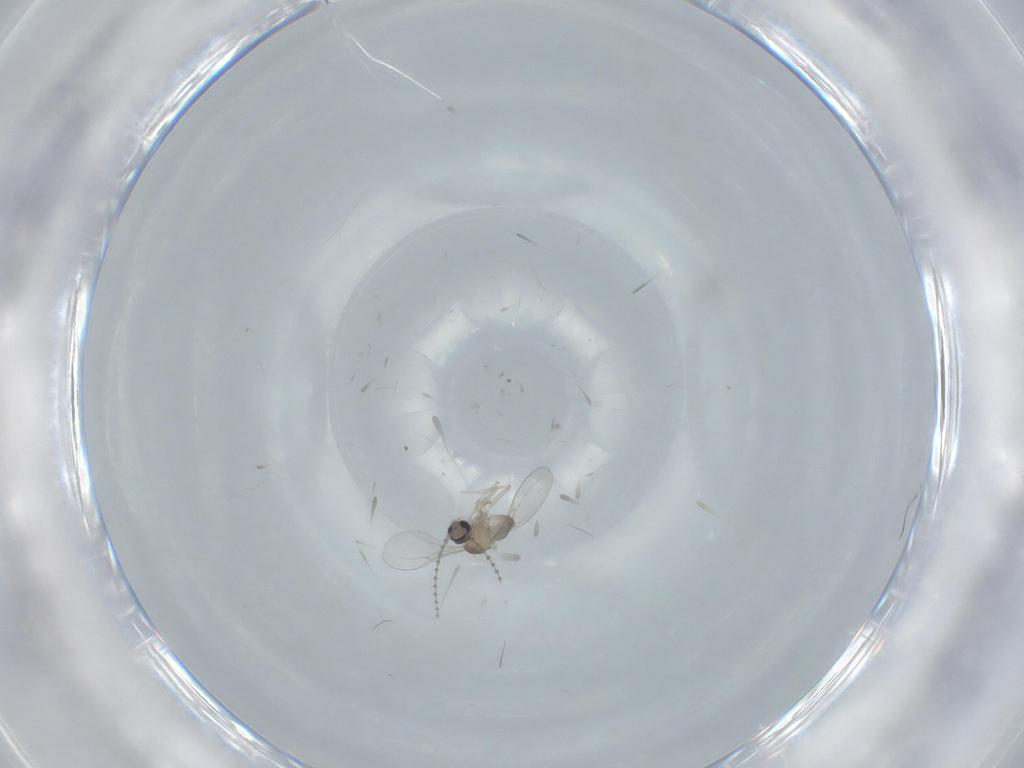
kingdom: Animalia
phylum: Arthropoda
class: Insecta
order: Diptera
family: Sciaridae
